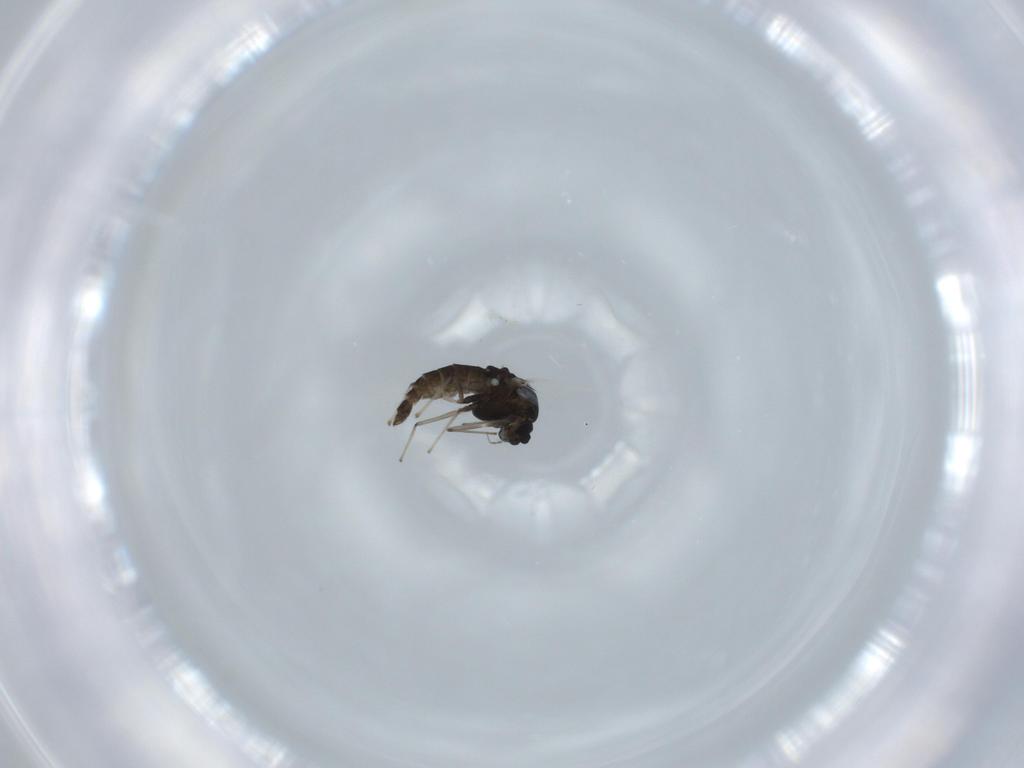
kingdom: Animalia
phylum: Arthropoda
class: Insecta
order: Diptera
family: Chironomidae
